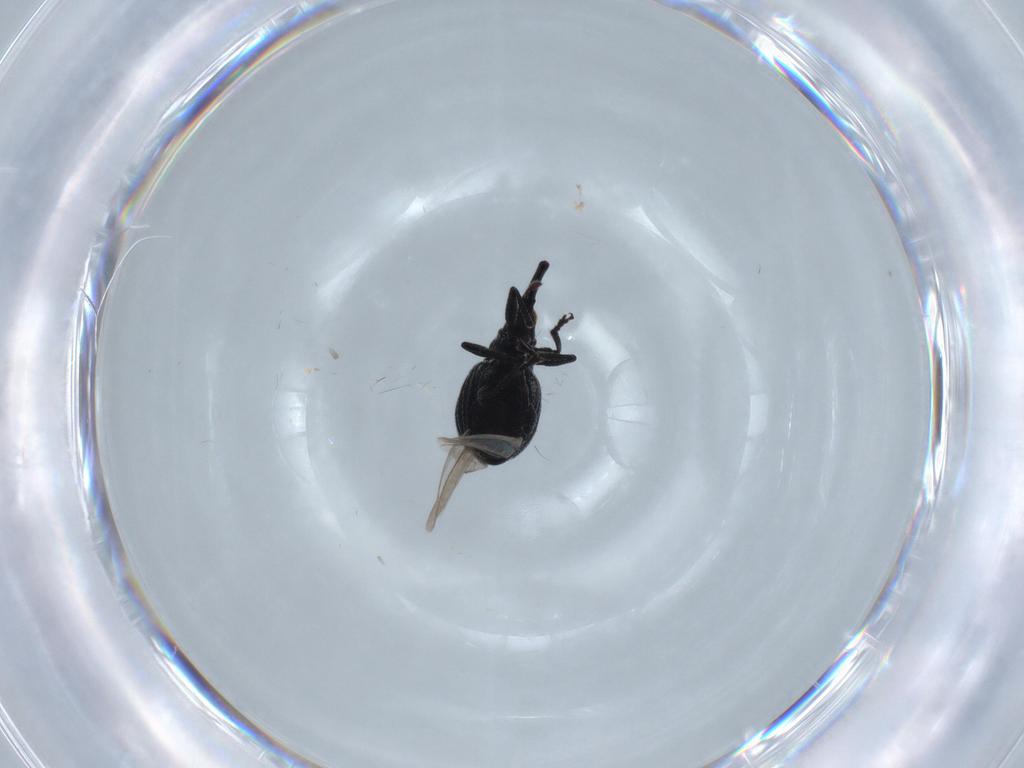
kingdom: Animalia
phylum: Arthropoda
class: Insecta
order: Coleoptera
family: Brentidae
